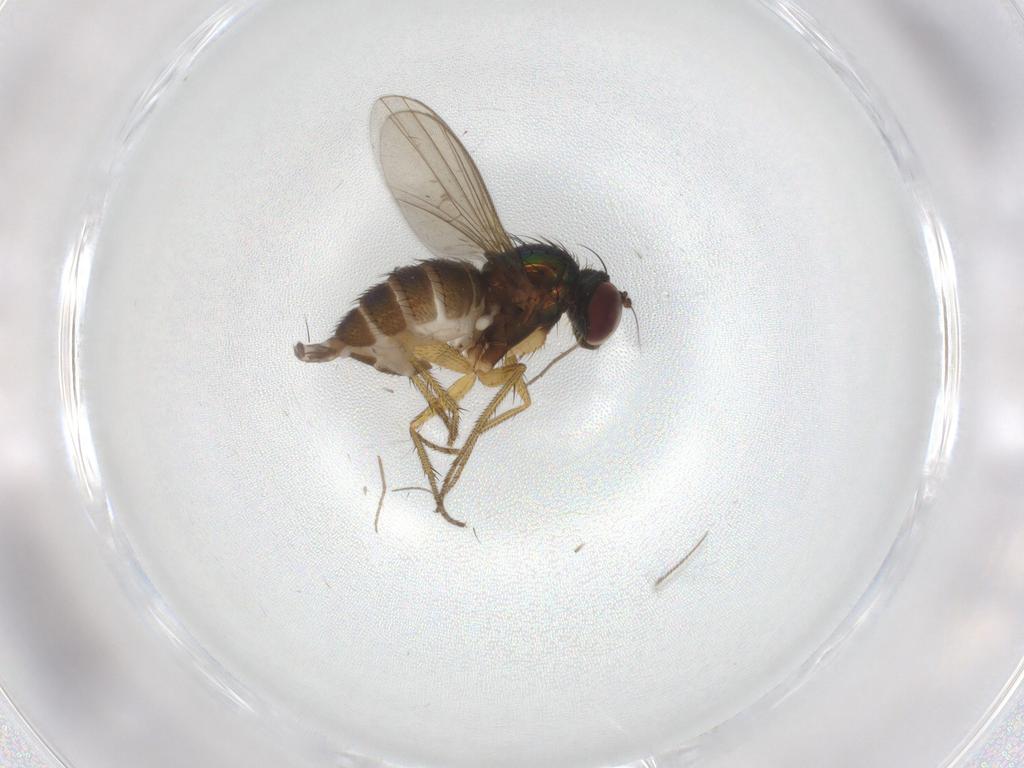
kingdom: Animalia
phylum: Arthropoda
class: Insecta
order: Diptera
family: Dolichopodidae
